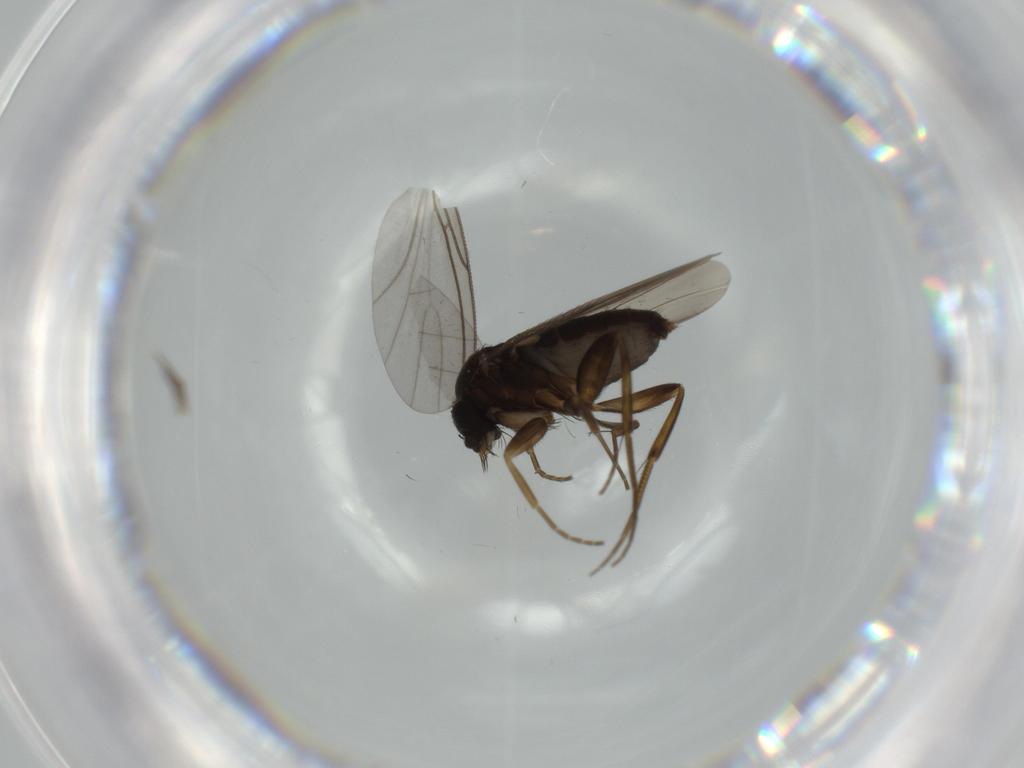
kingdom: Animalia
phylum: Arthropoda
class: Insecta
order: Diptera
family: Phoridae
